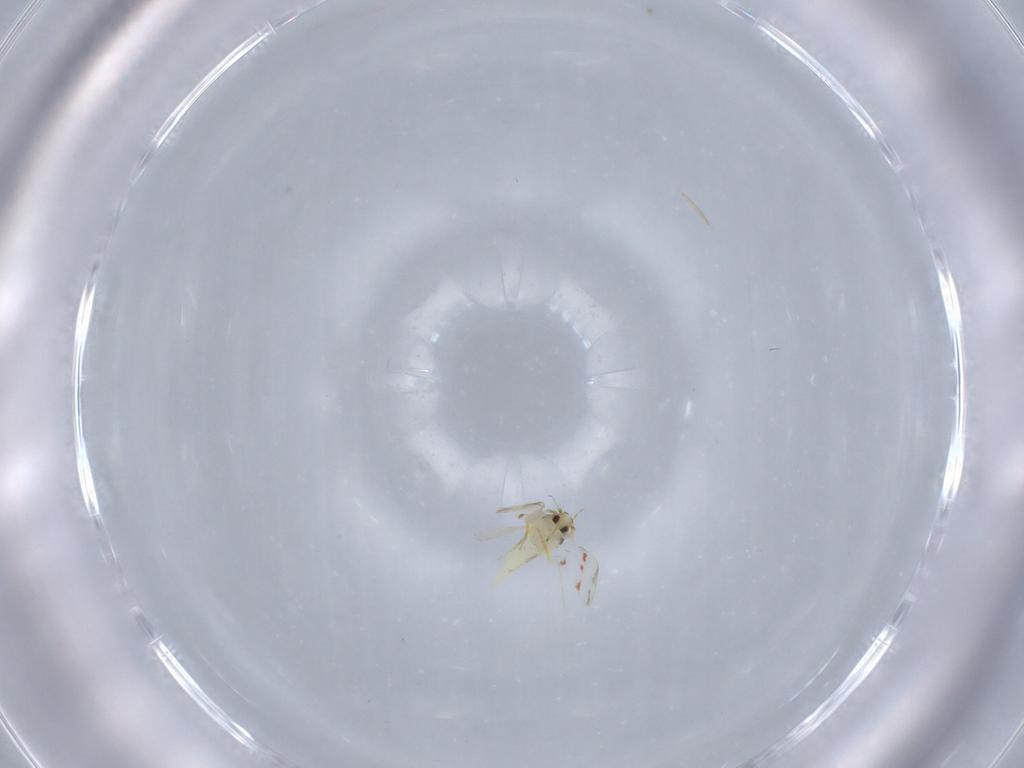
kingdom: Animalia
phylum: Arthropoda
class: Insecta
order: Hemiptera
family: Aleyrodidae
